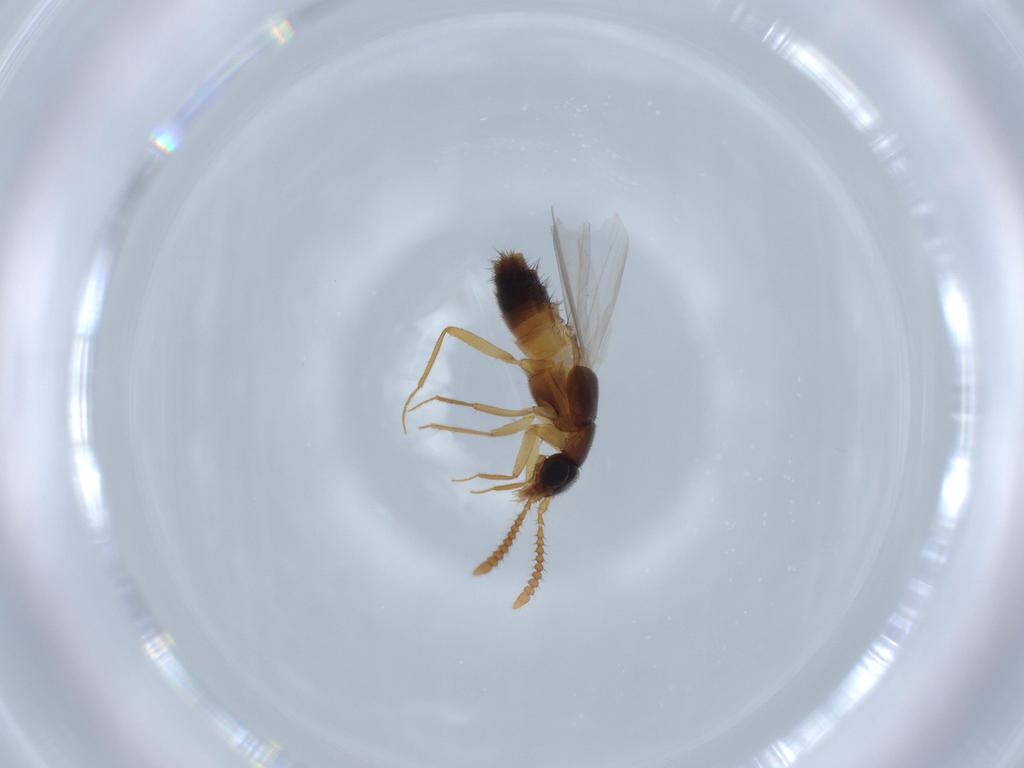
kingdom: Animalia
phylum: Arthropoda
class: Insecta
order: Coleoptera
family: Staphylinidae
